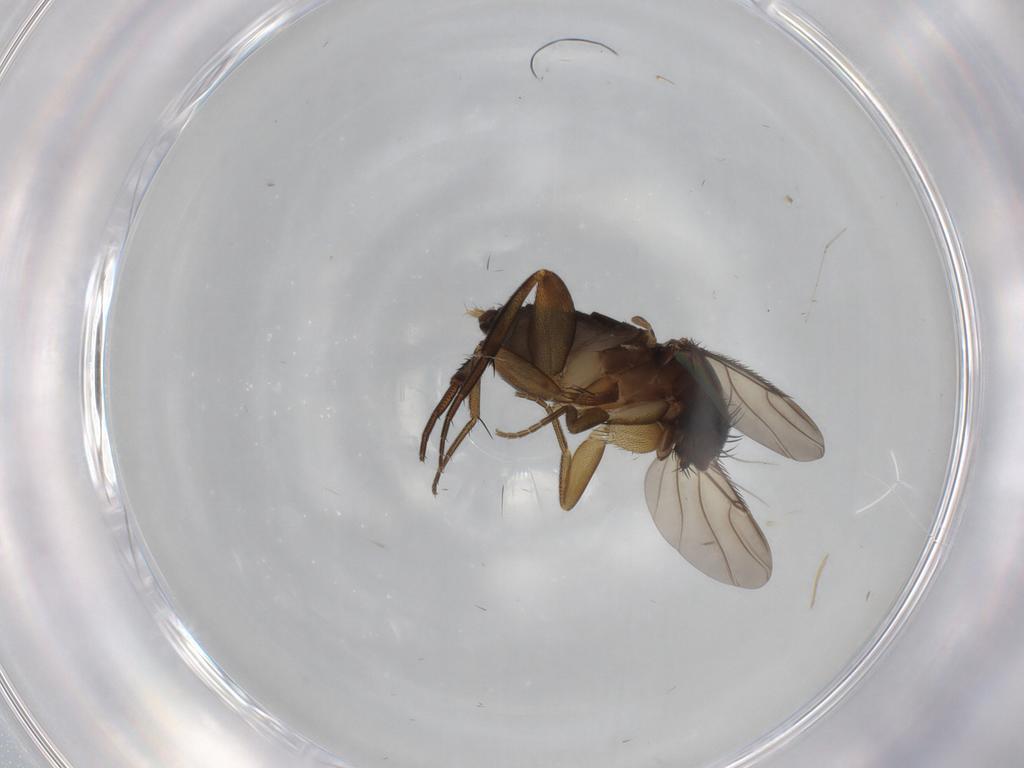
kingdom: Animalia
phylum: Arthropoda
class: Insecta
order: Diptera
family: Phoridae
